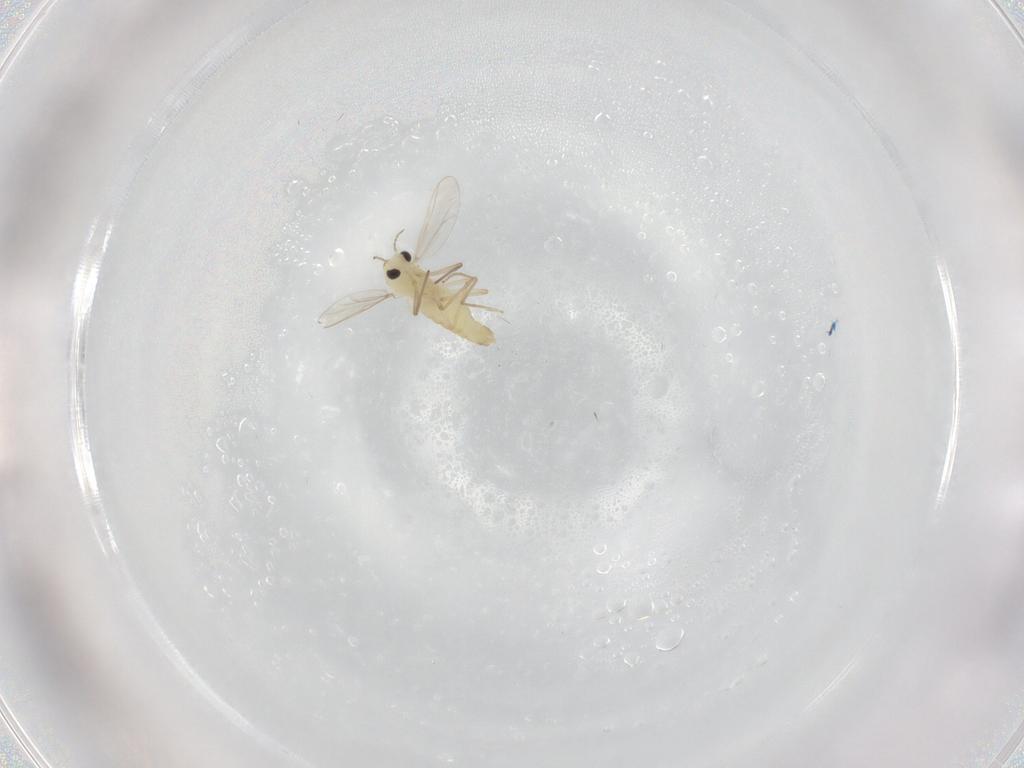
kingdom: Animalia
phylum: Arthropoda
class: Insecta
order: Diptera
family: Chironomidae
